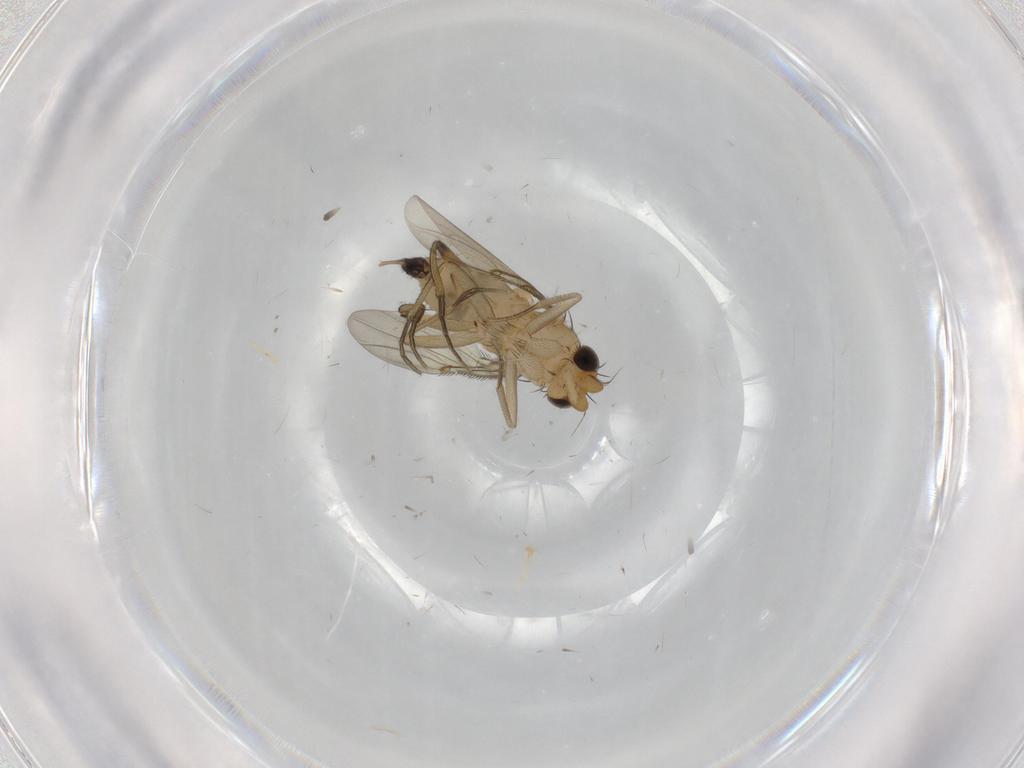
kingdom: Animalia
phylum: Arthropoda
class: Insecta
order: Diptera
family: Phoridae
